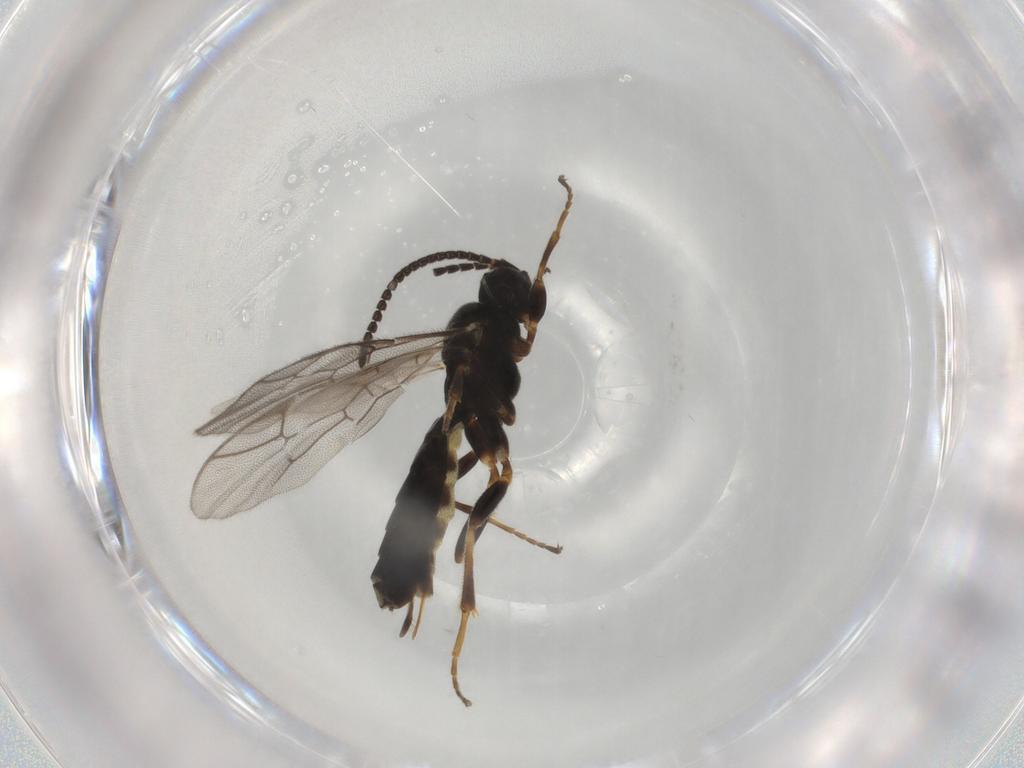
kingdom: Animalia
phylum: Arthropoda
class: Insecta
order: Hymenoptera
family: Ichneumonidae
